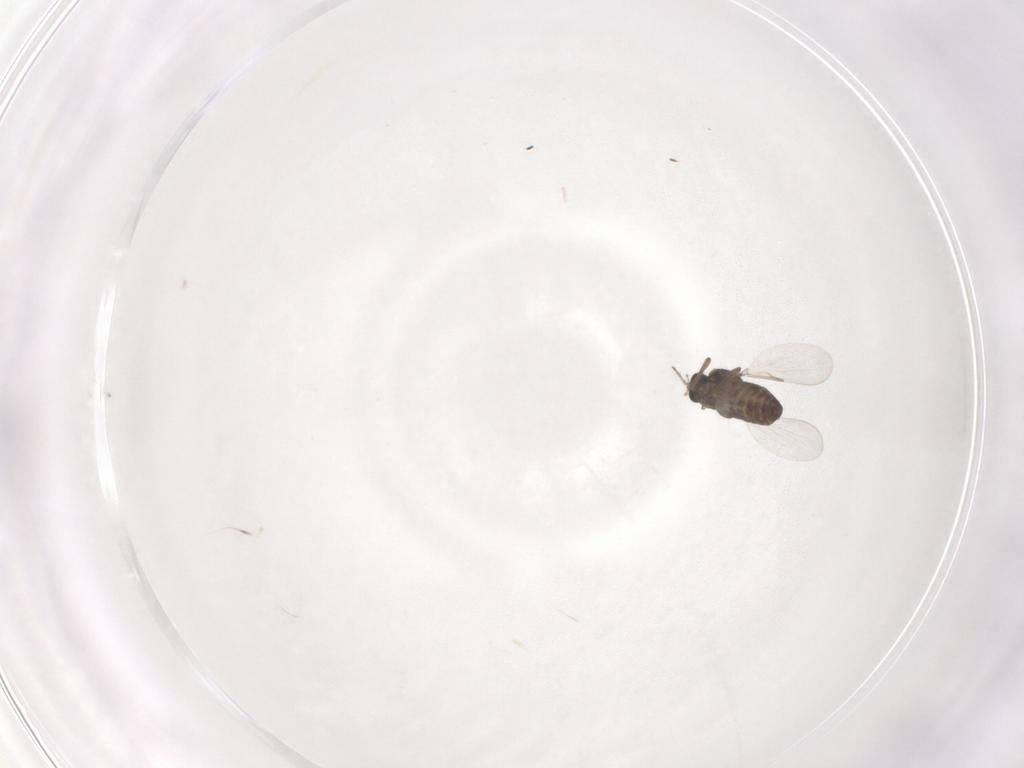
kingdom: Animalia
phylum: Arthropoda
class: Insecta
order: Diptera
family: Ceratopogonidae
